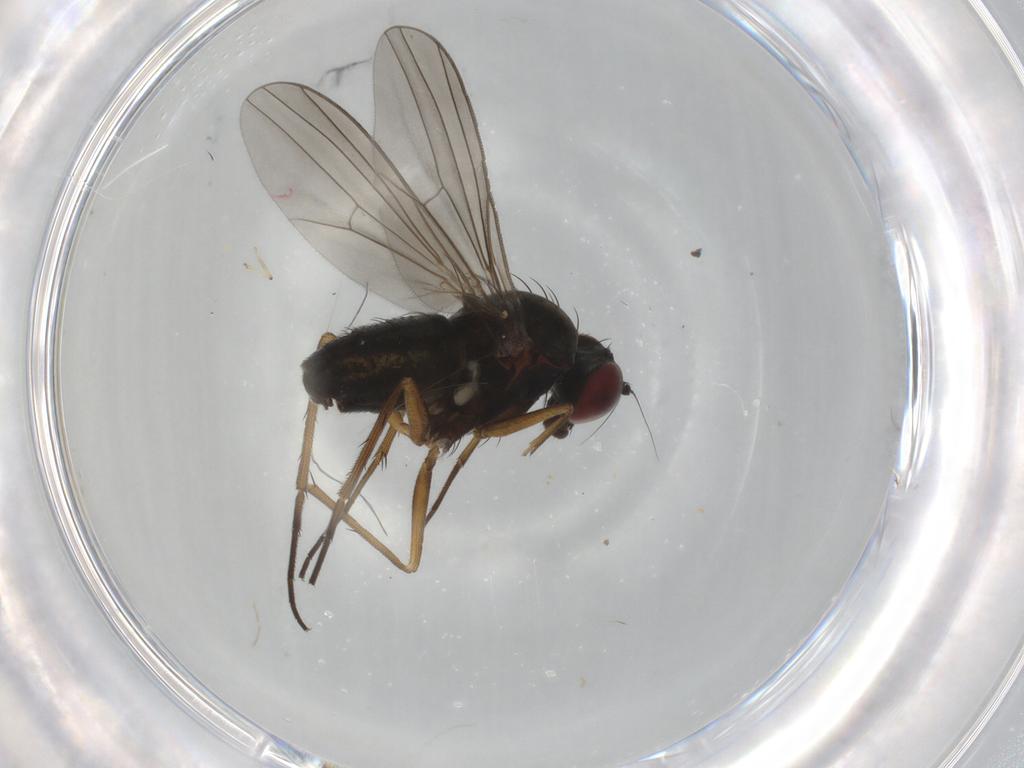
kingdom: Animalia
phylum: Arthropoda
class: Insecta
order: Diptera
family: Dolichopodidae
